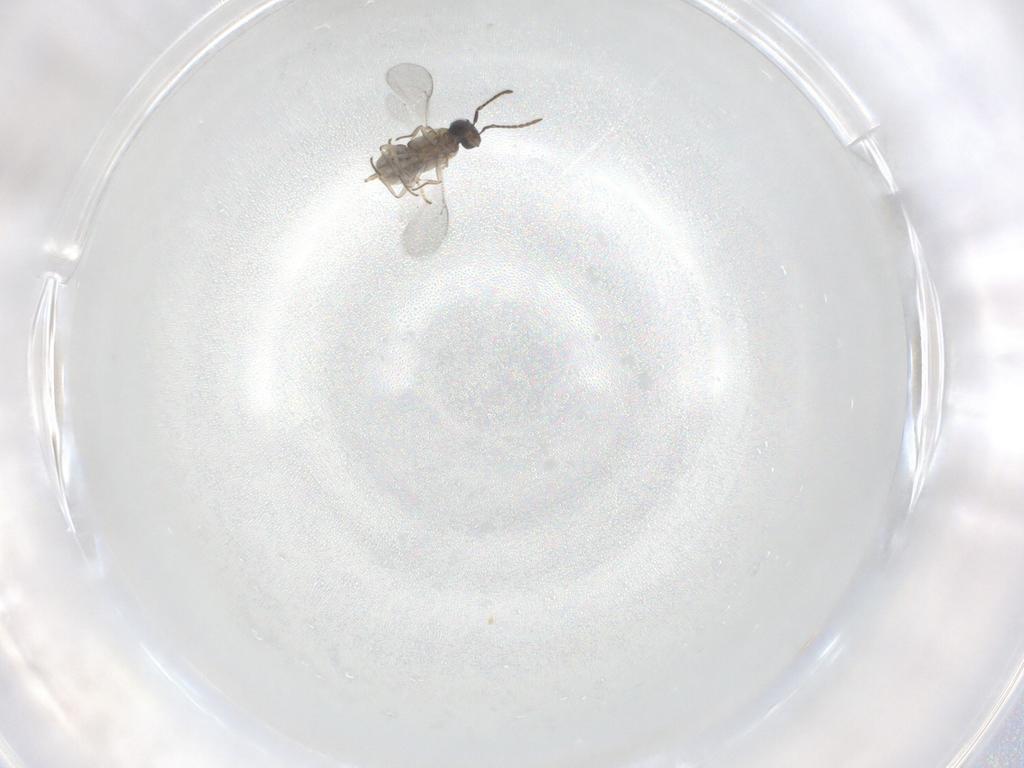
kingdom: Animalia
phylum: Arthropoda
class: Insecta
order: Hymenoptera
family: Encyrtidae
